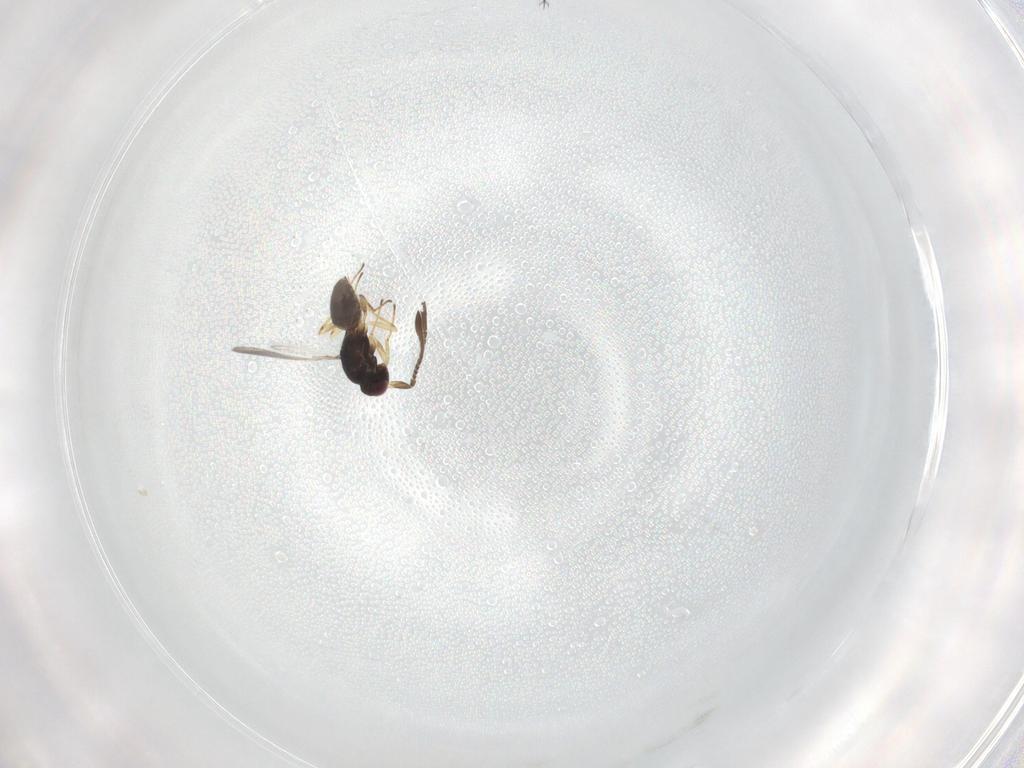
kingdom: Animalia
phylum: Arthropoda
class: Insecta
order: Hymenoptera
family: Mymaridae
